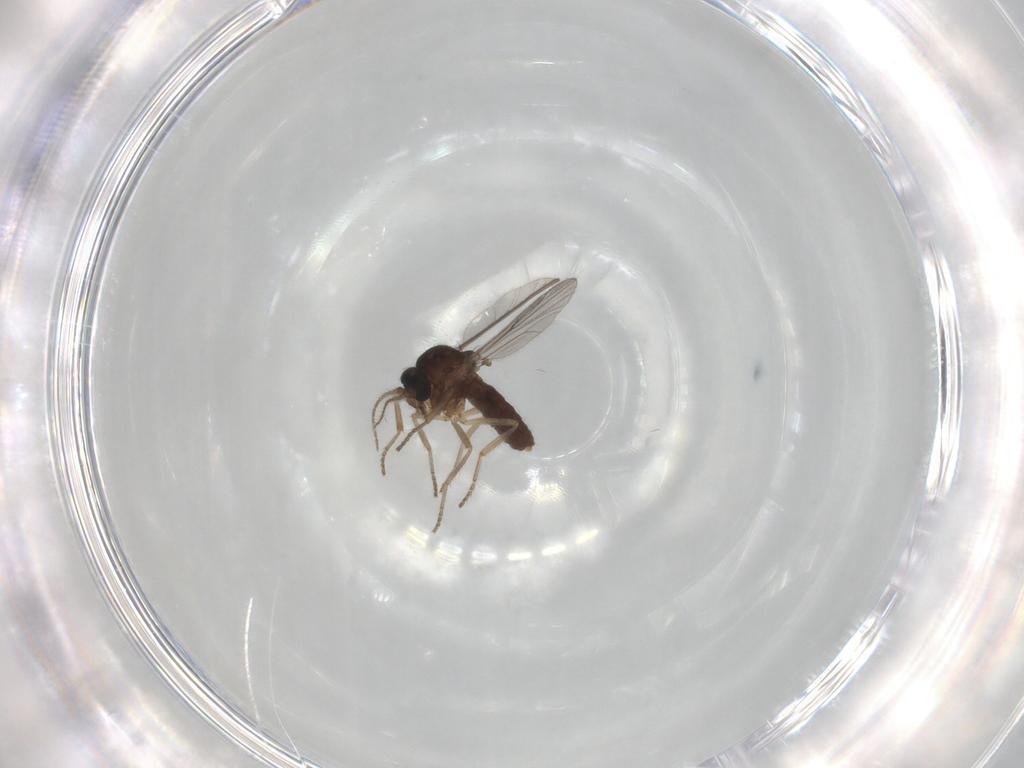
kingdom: Animalia
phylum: Arthropoda
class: Insecta
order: Diptera
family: Ceratopogonidae
